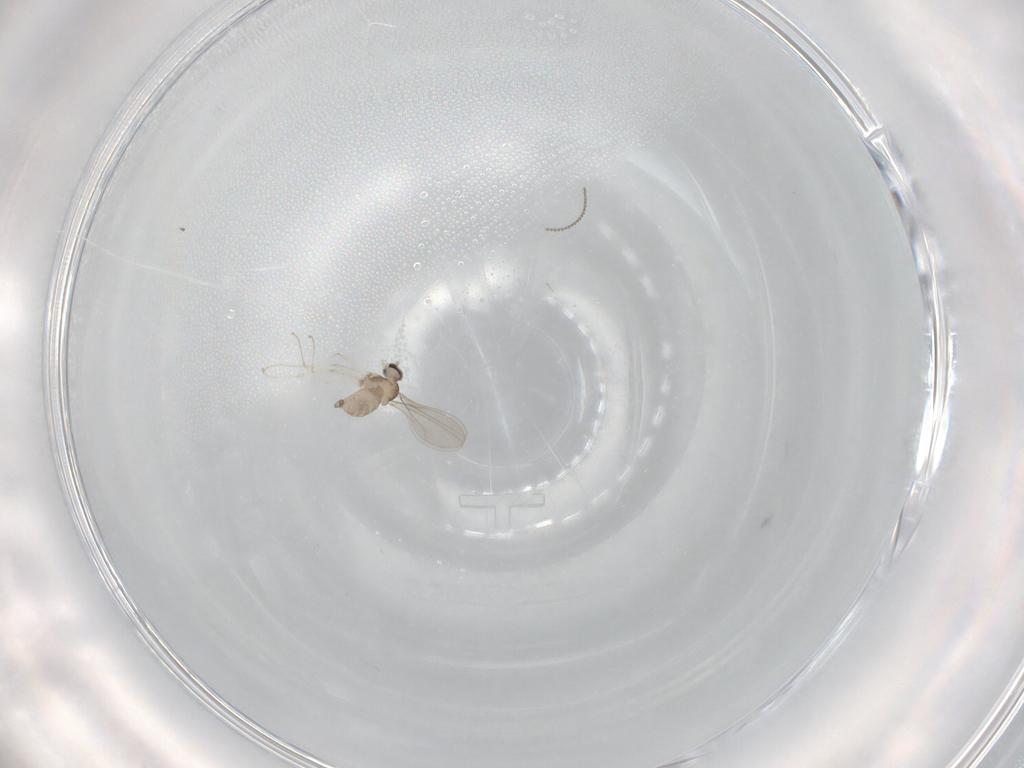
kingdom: Animalia
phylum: Arthropoda
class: Insecta
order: Diptera
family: Cecidomyiidae
